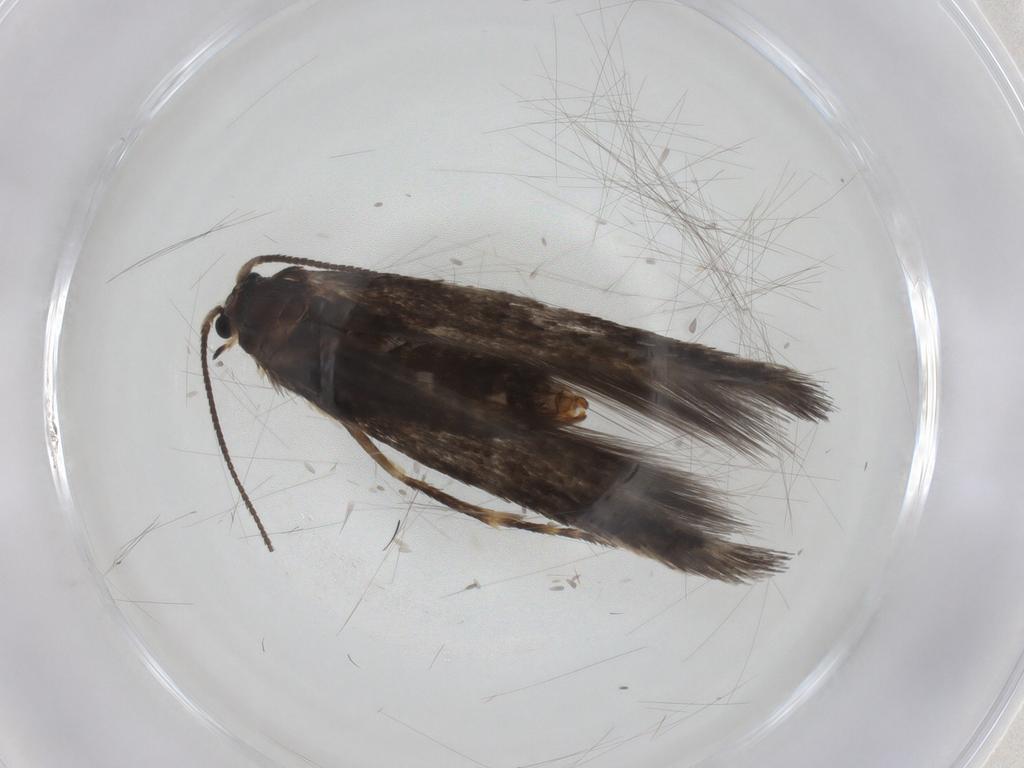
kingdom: Animalia
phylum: Arthropoda
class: Insecta
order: Lepidoptera
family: Nepticulidae
